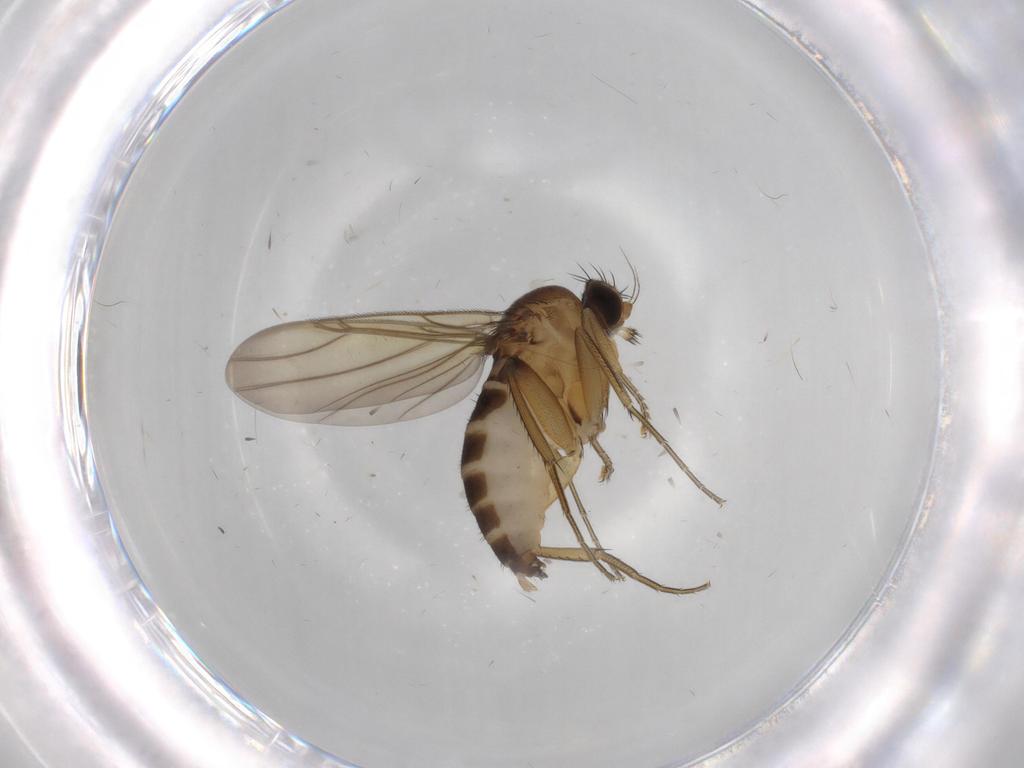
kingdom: Animalia
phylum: Arthropoda
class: Insecta
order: Diptera
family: Phoridae
